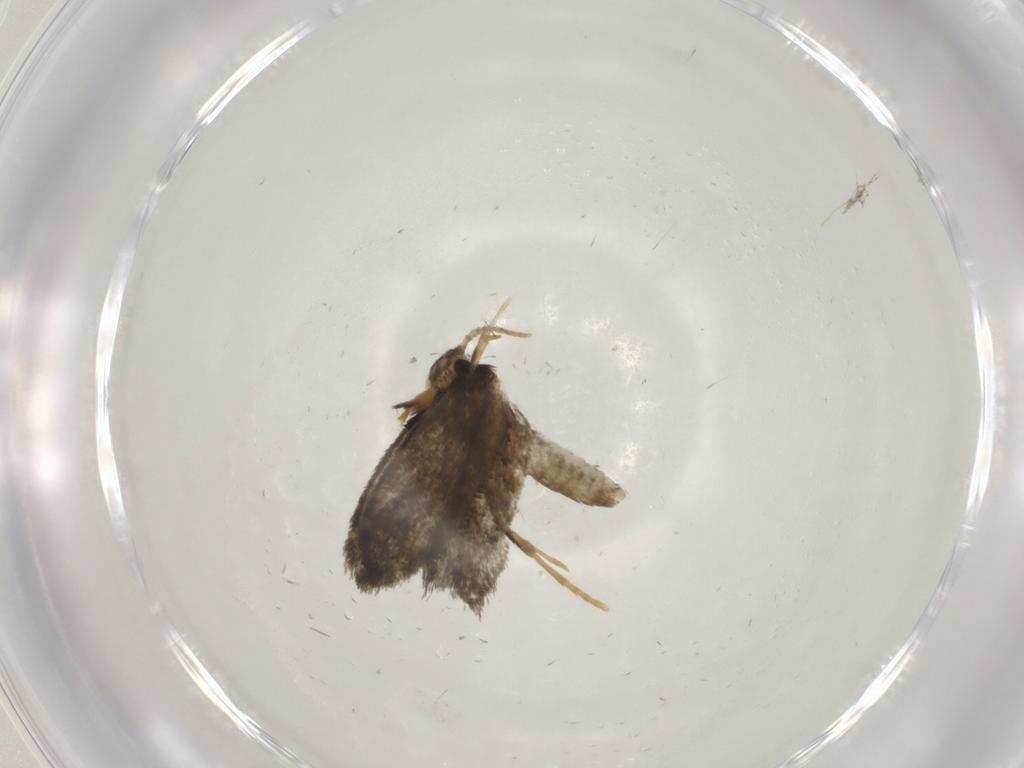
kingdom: Animalia
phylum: Arthropoda
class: Insecta
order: Lepidoptera
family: Psychidae
